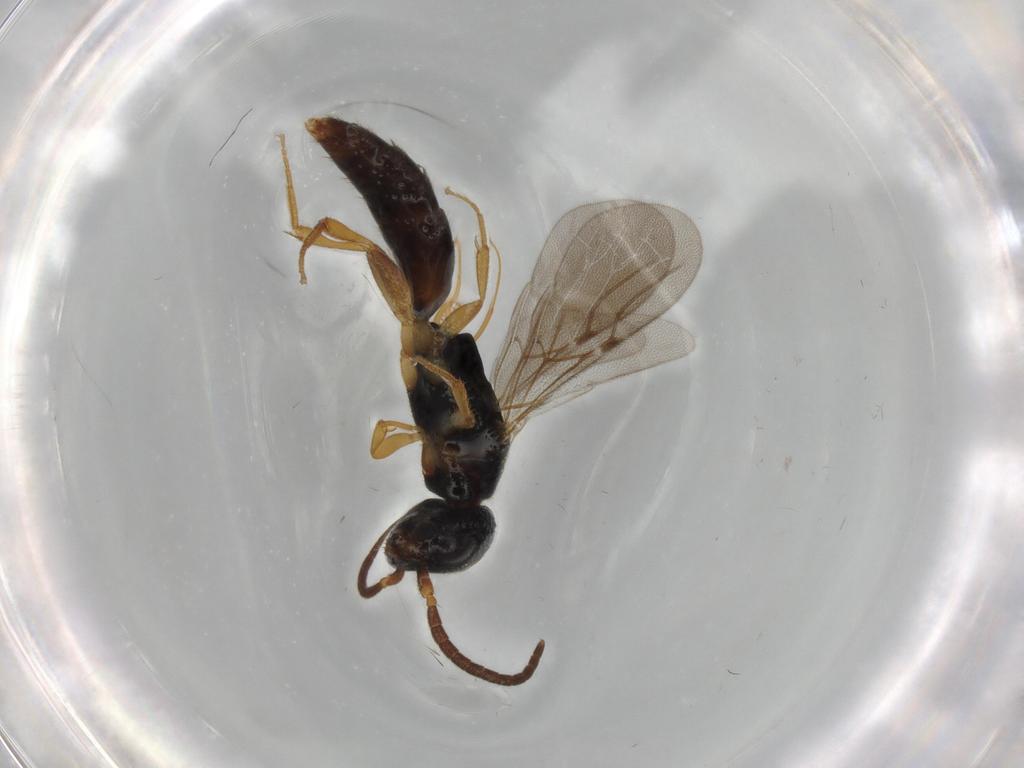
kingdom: Animalia
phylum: Arthropoda
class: Insecta
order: Hymenoptera
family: Bethylidae
